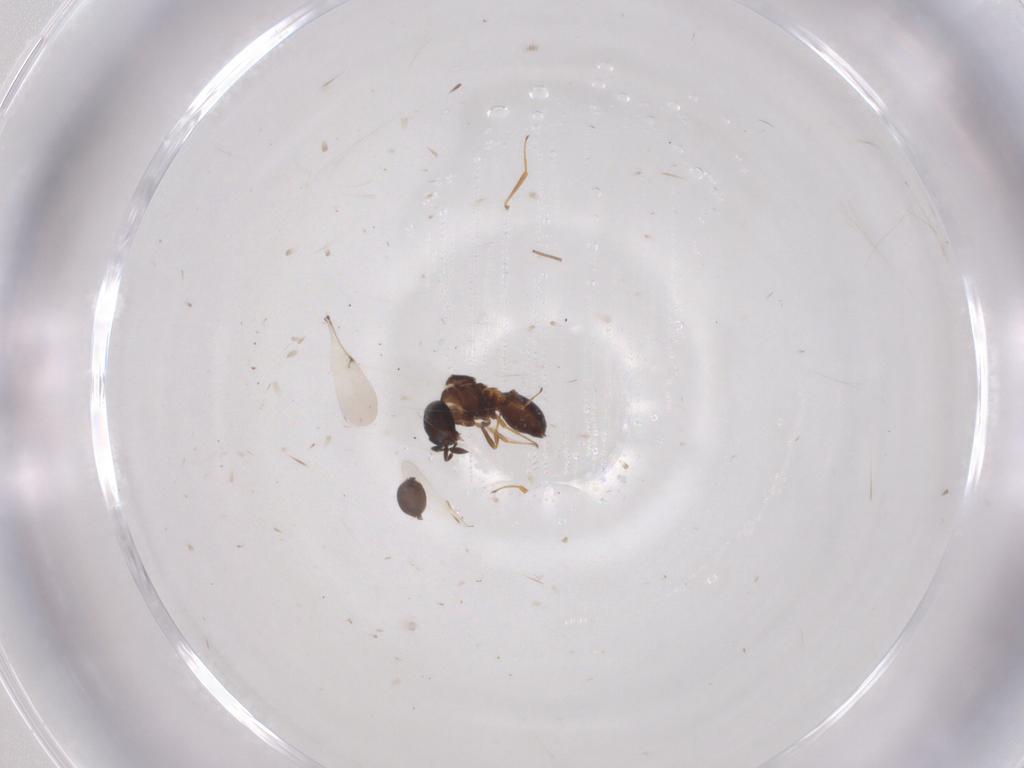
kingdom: Animalia
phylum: Arthropoda
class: Arachnida
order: Araneae
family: Pholcidae
